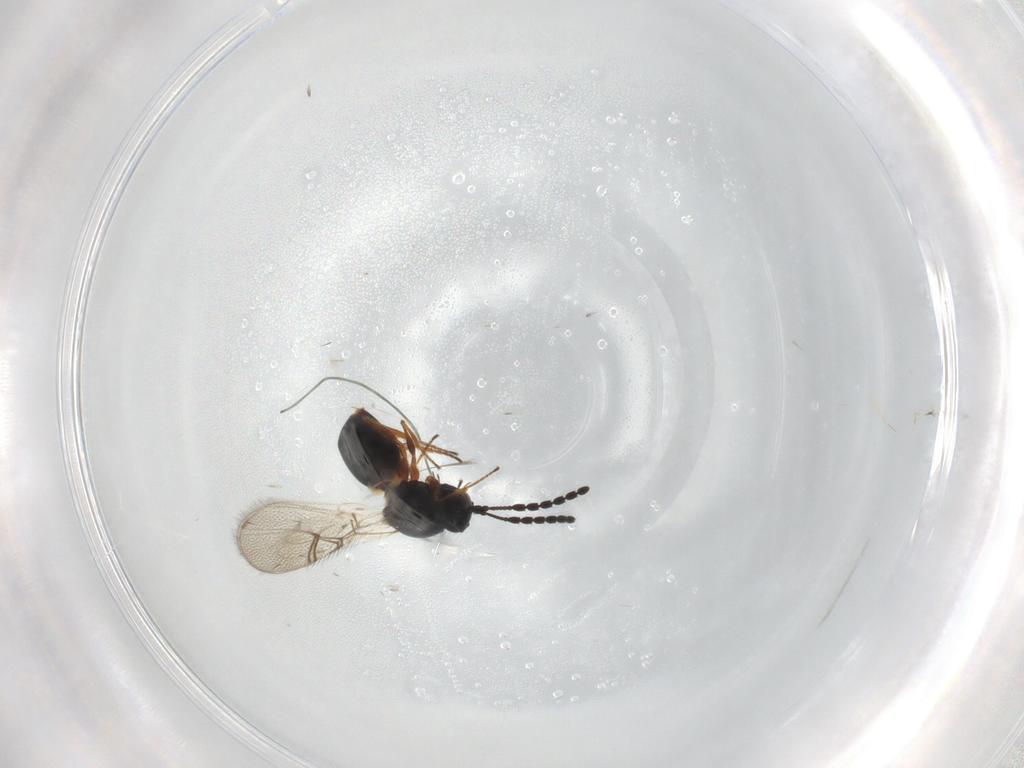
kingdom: Animalia
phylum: Arthropoda
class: Insecta
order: Hymenoptera
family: Figitidae
